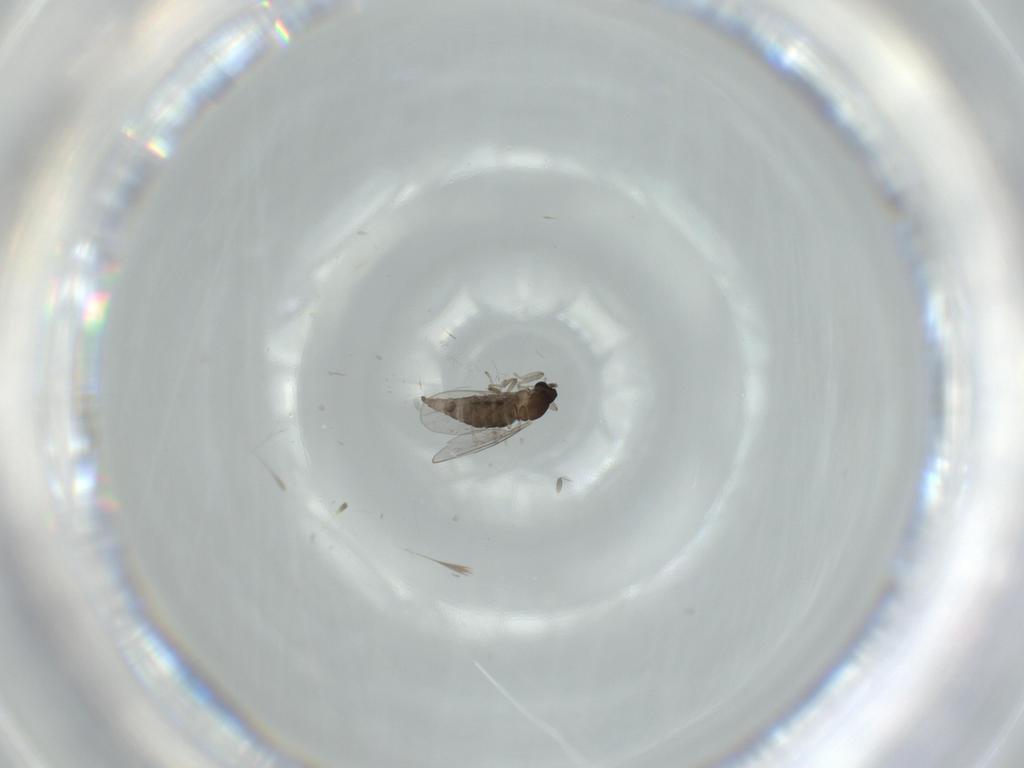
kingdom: Animalia
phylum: Arthropoda
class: Insecta
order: Diptera
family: Cecidomyiidae
